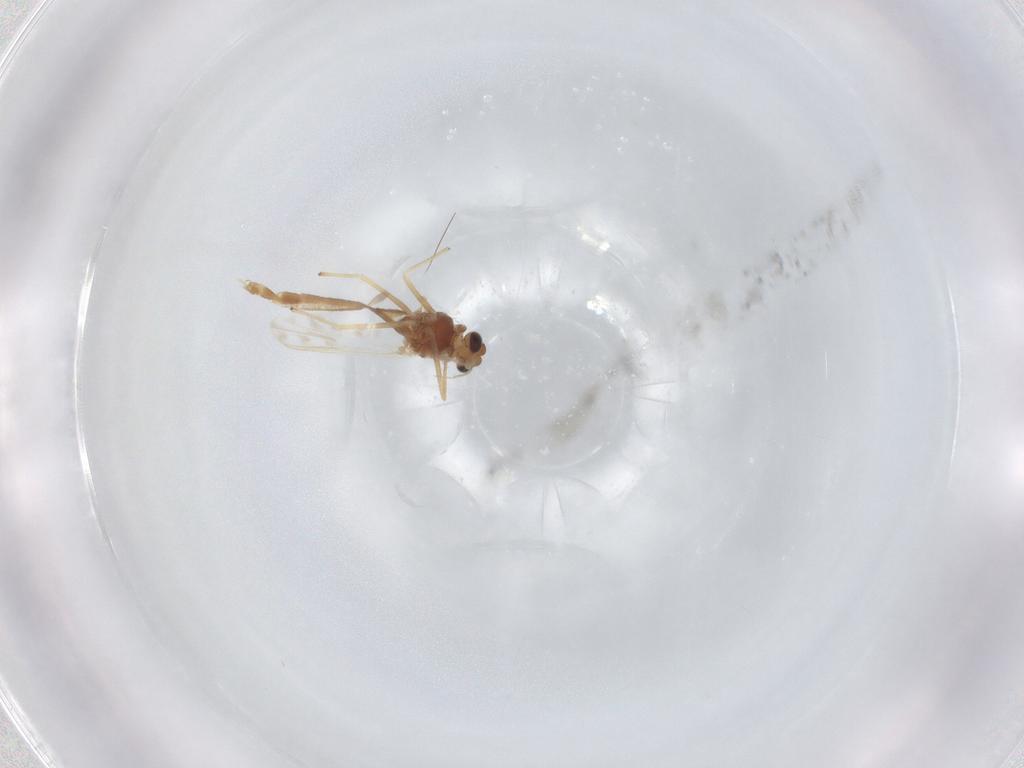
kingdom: Animalia
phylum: Arthropoda
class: Insecta
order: Diptera
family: Chironomidae
